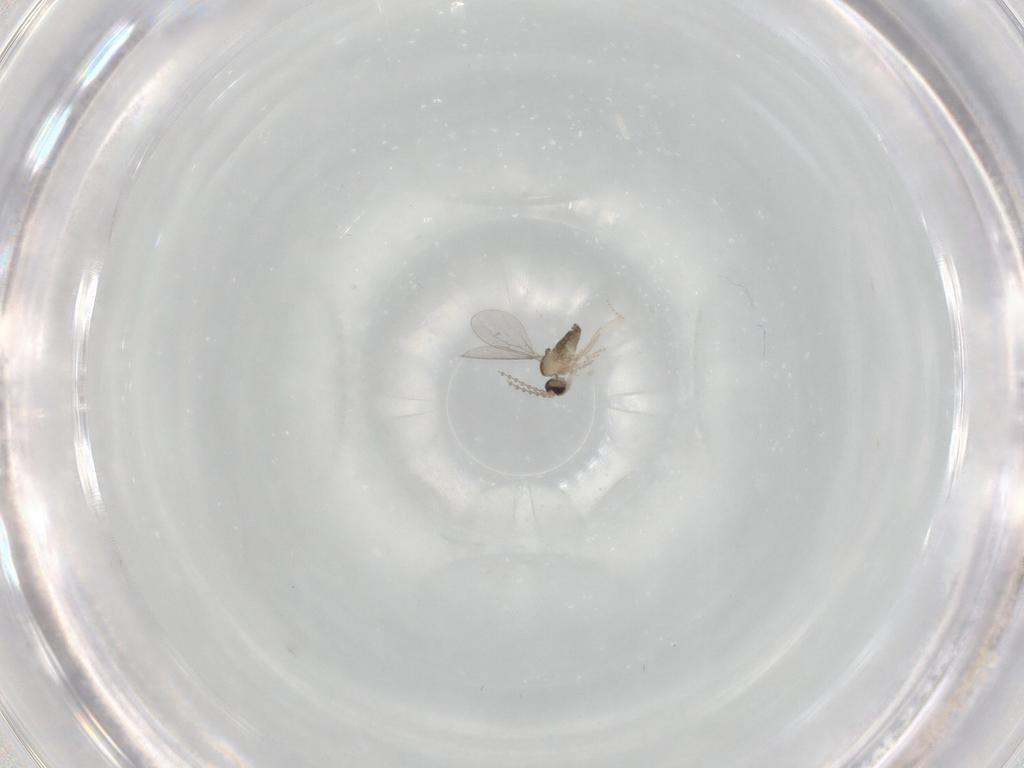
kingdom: Animalia
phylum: Arthropoda
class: Insecta
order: Diptera
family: Cecidomyiidae
